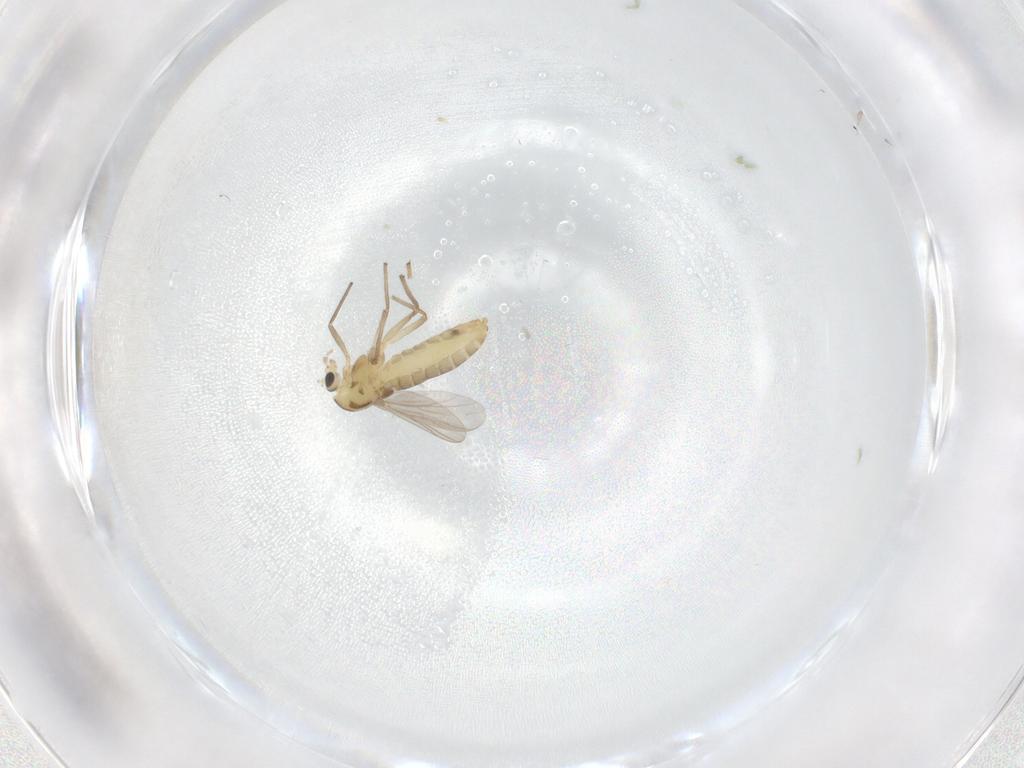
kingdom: Animalia
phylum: Arthropoda
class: Insecta
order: Diptera
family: Chironomidae
